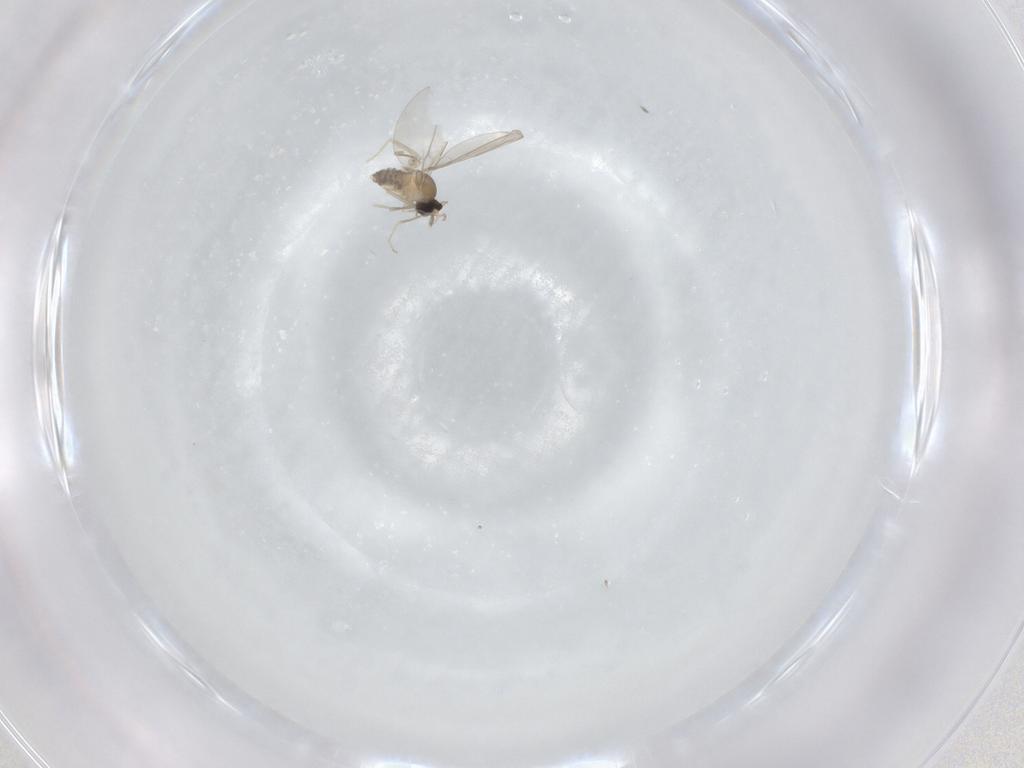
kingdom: Animalia
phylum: Arthropoda
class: Insecta
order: Diptera
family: Cecidomyiidae
